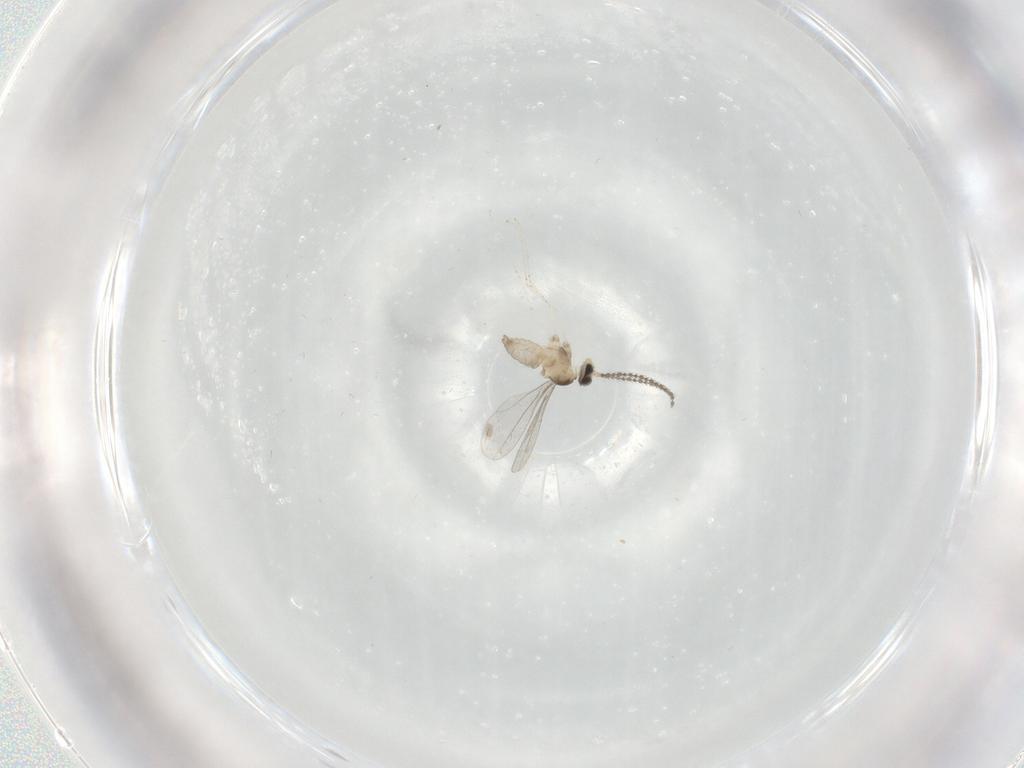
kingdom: Animalia
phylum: Arthropoda
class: Insecta
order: Diptera
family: Cecidomyiidae
